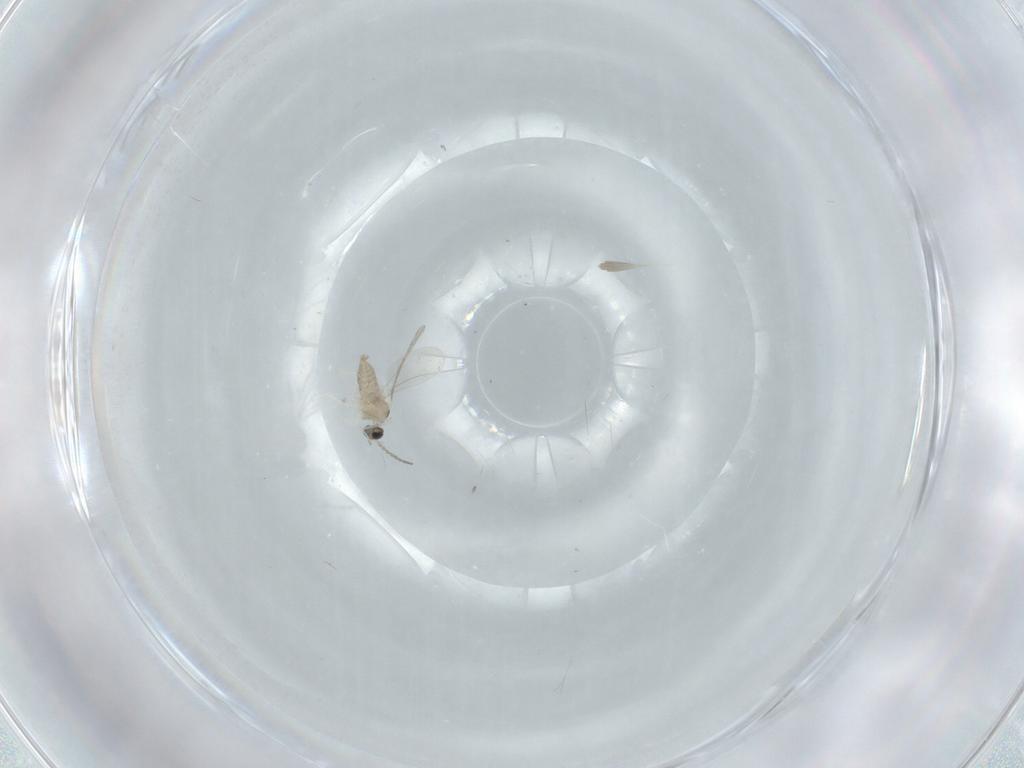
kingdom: Animalia
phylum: Arthropoda
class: Insecta
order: Diptera
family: Cecidomyiidae
